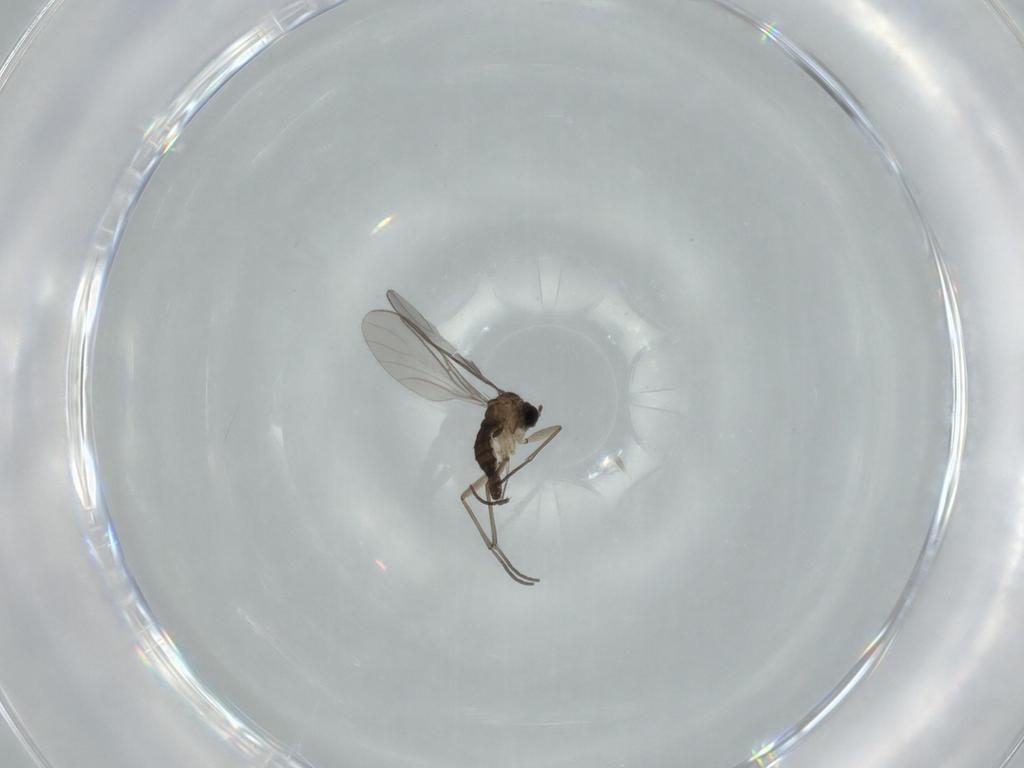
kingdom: Animalia
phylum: Arthropoda
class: Insecta
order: Diptera
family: Sciaridae
